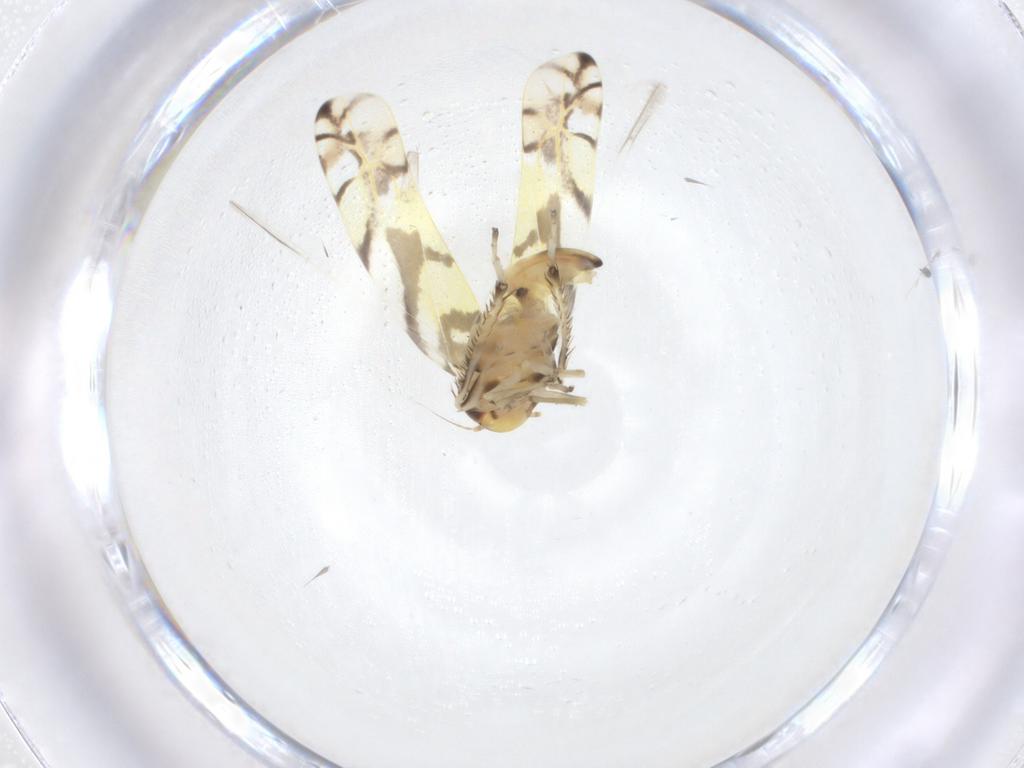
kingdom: Animalia
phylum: Arthropoda
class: Insecta
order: Hemiptera
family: Cicadellidae
